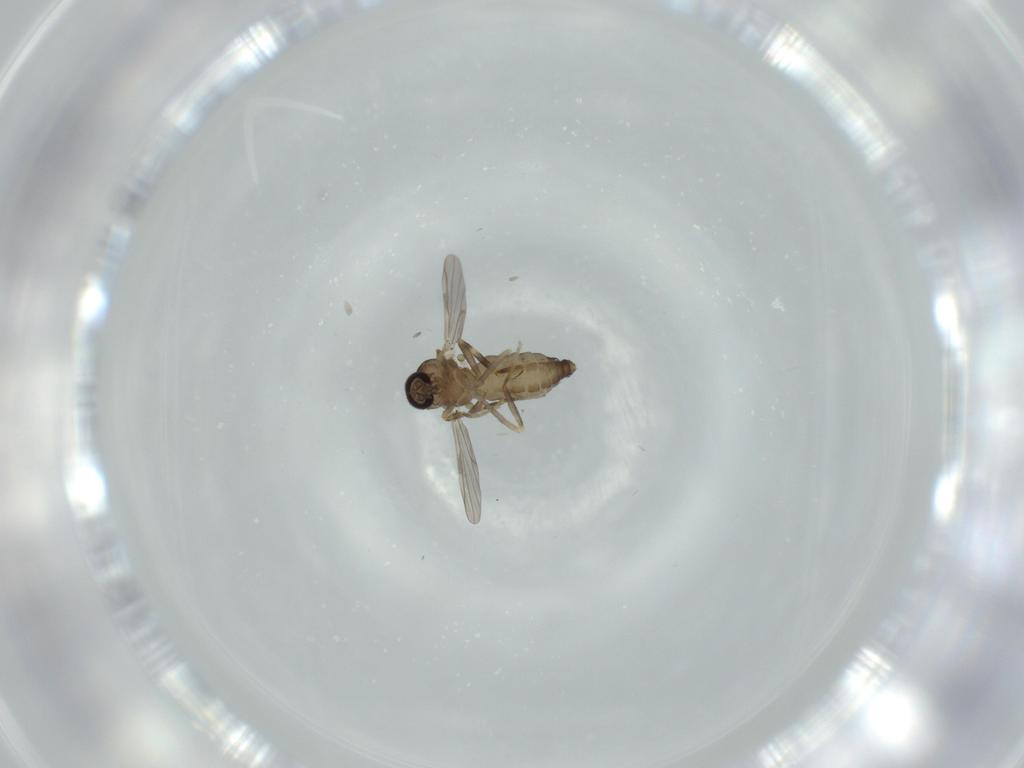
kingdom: Animalia
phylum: Arthropoda
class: Insecta
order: Diptera
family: Ceratopogonidae
